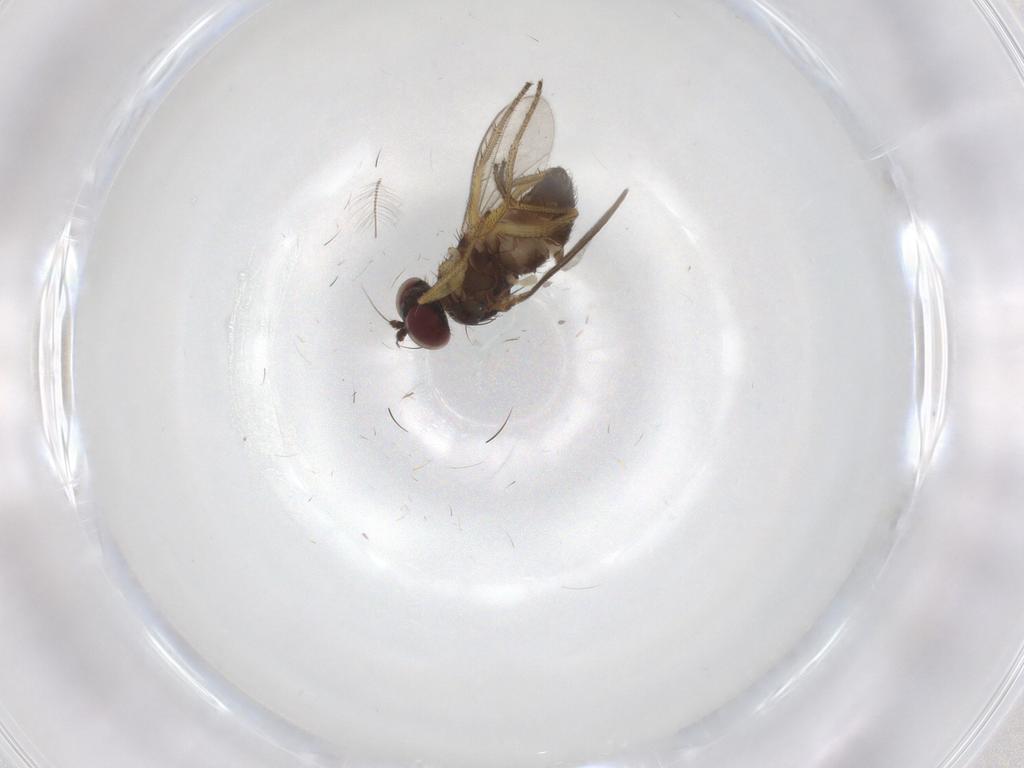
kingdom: Animalia
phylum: Arthropoda
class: Insecta
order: Diptera
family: Dolichopodidae
